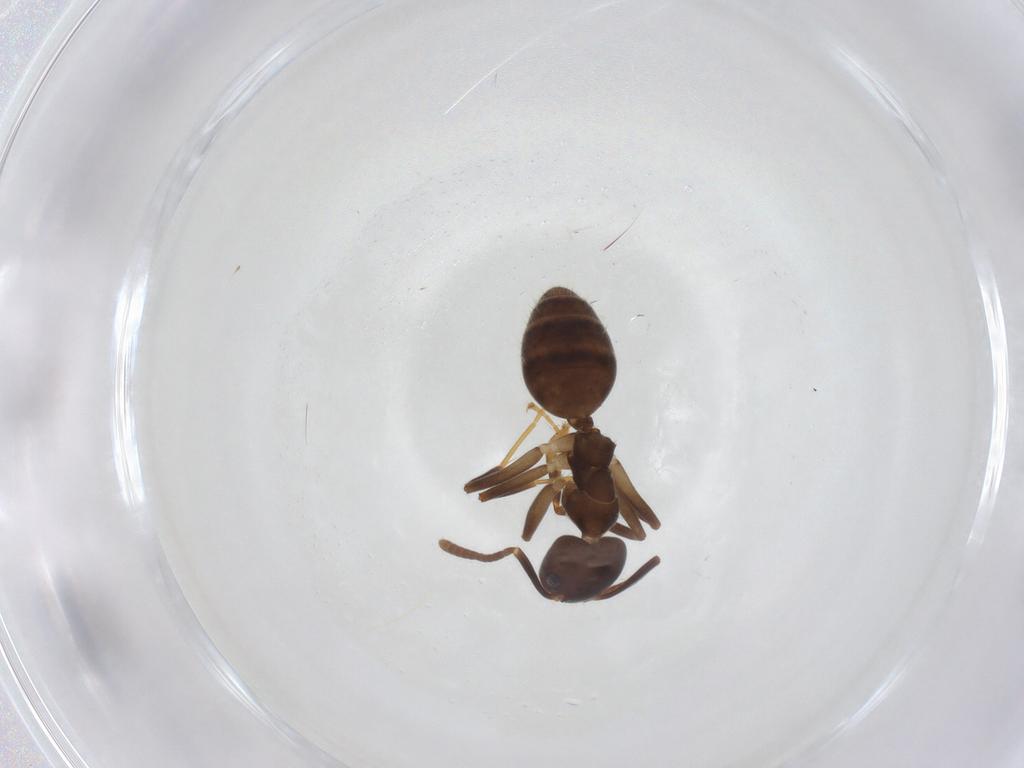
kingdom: Animalia
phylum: Arthropoda
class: Insecta
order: Hymenoptera
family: Formicidae
